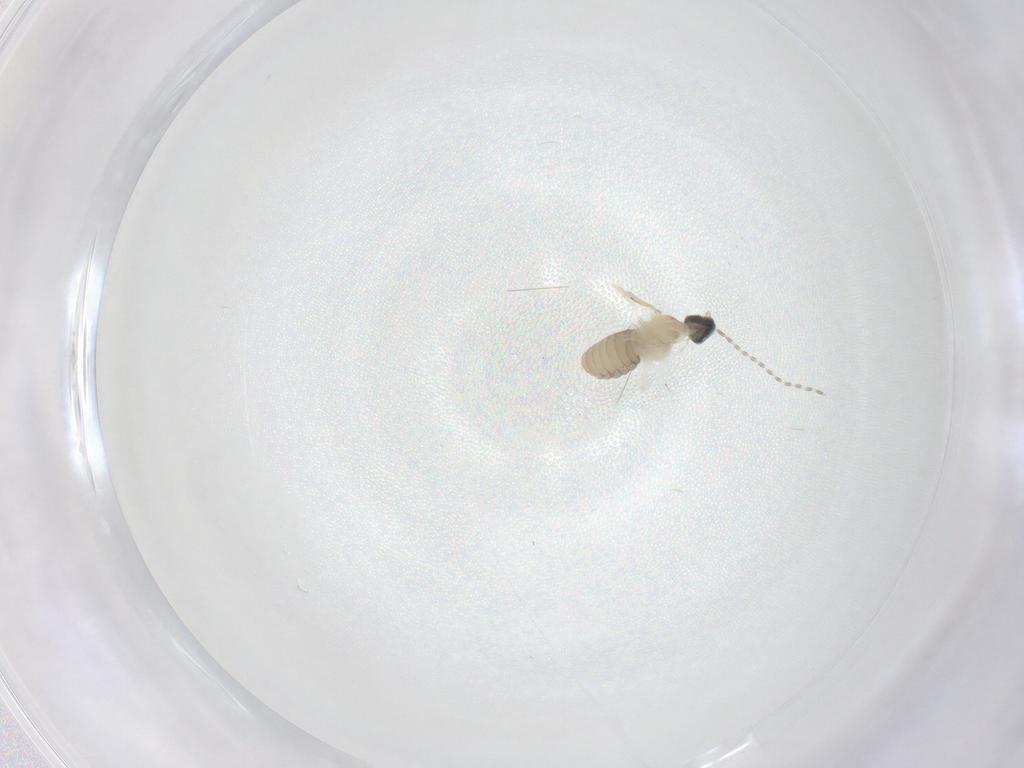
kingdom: Animalia
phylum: Arthropoda
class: Insecta
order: Diptera
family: Cecidomyiidae
